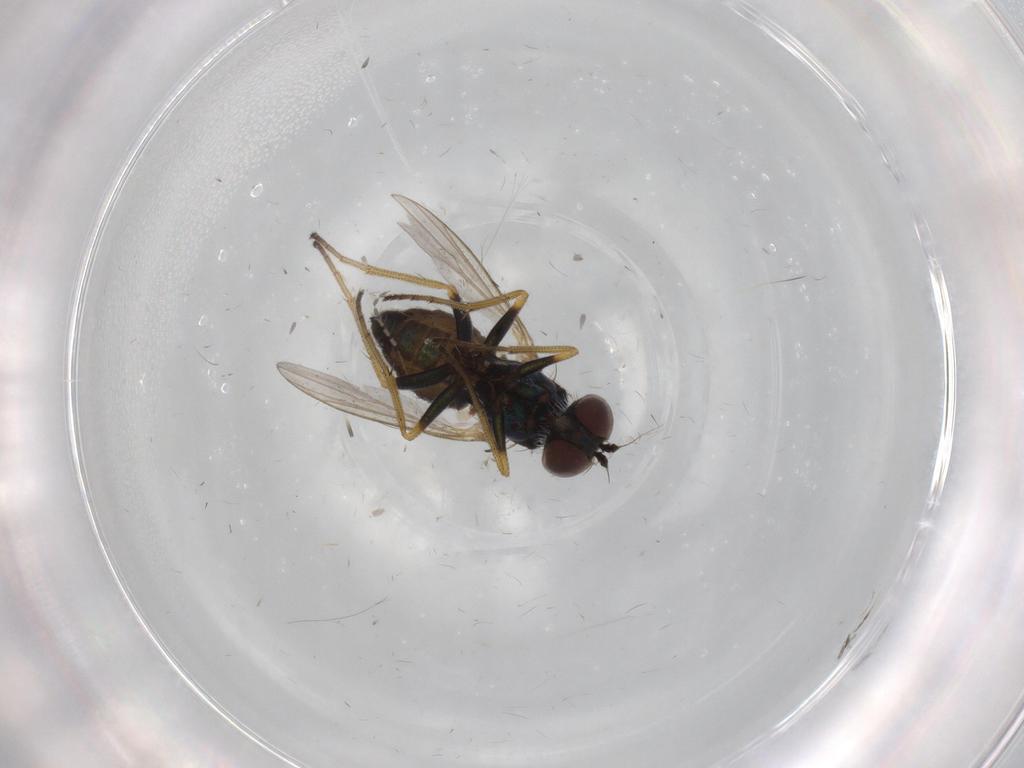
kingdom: Animalia
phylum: Arthropoda
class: Insecta
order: Diptera
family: Dolichopodidae
